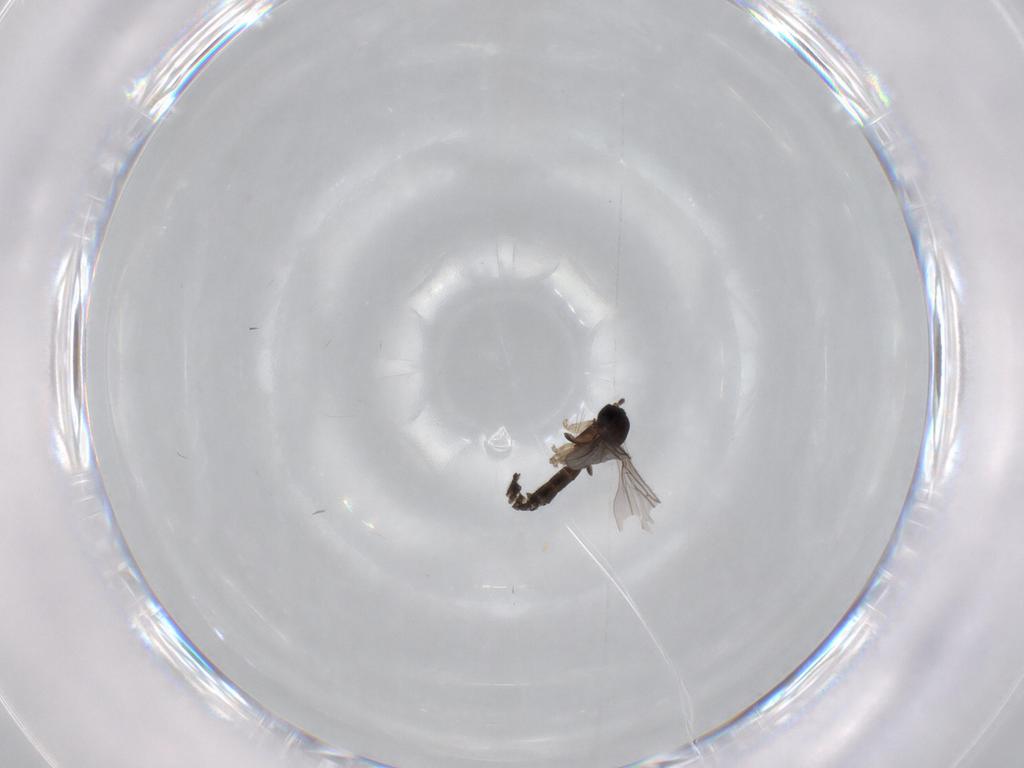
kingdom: Animalia
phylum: Arthropoda
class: Insecta
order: Diptera
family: Sciaridae
